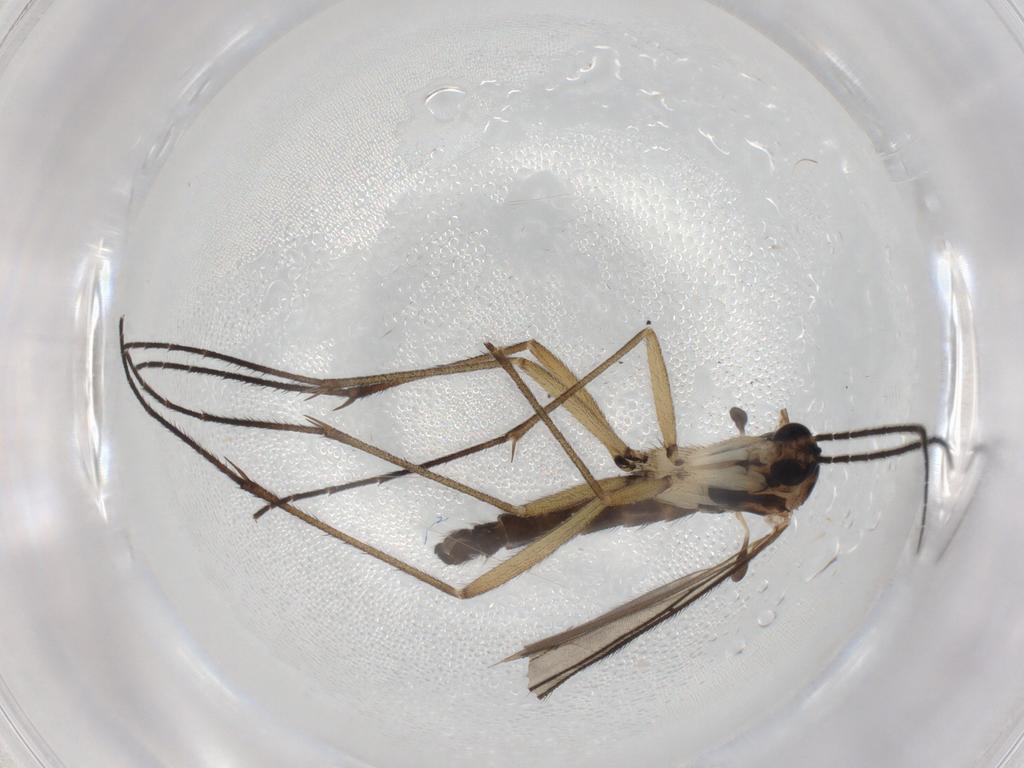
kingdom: Animalia
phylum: Arthropoda
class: Insecta
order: Diptera
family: Sciaridae
